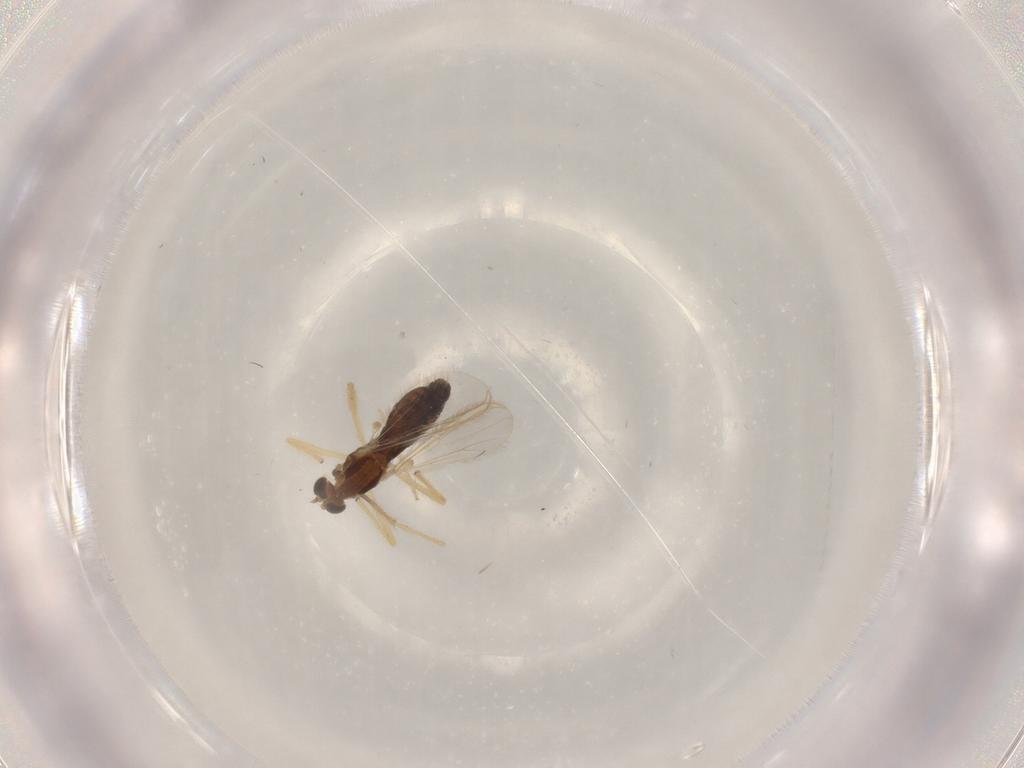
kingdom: Animalia
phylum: Arthropoda
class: Insecta
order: Diptera
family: Chironomidae
